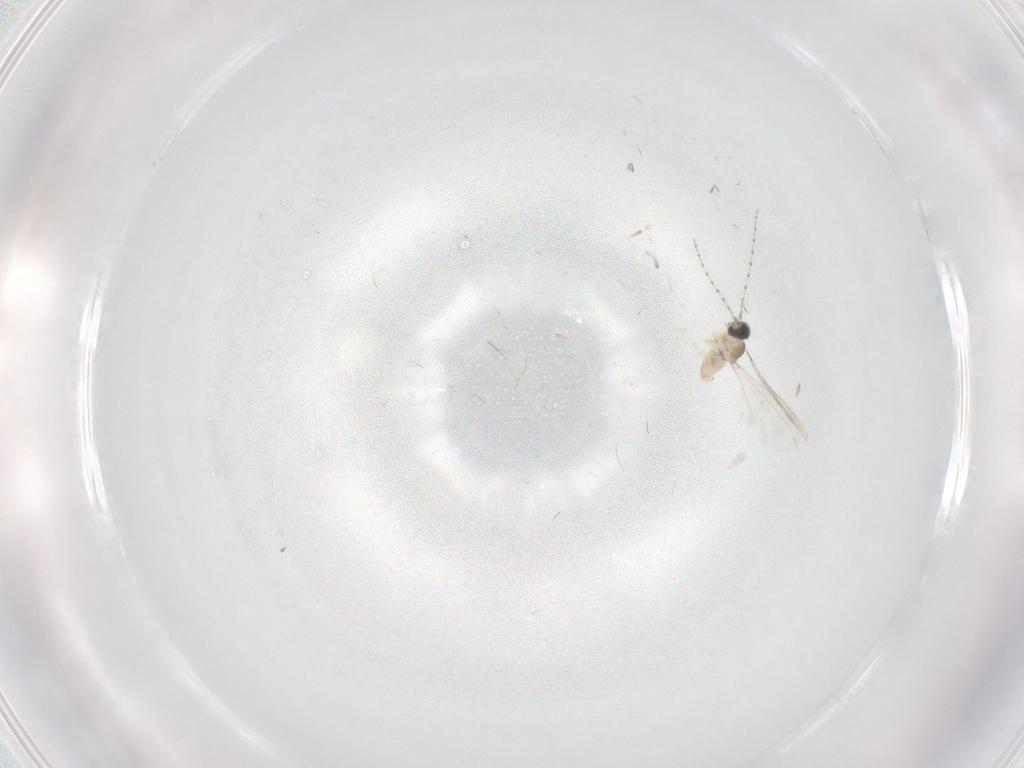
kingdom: Animalia
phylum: Arthropoda
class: Insecta
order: Diptera
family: Cecidomyiidae
